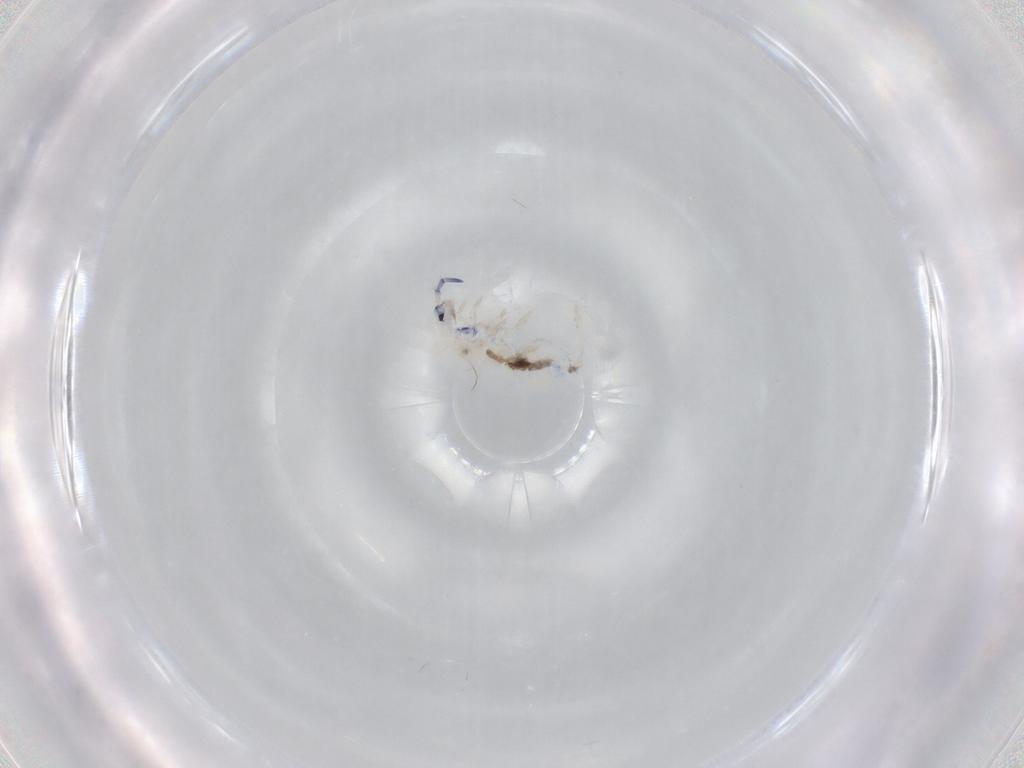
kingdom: Animalia
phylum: Arthropoda
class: Collembola
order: Entomobryomorpha
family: Entomobryidae
